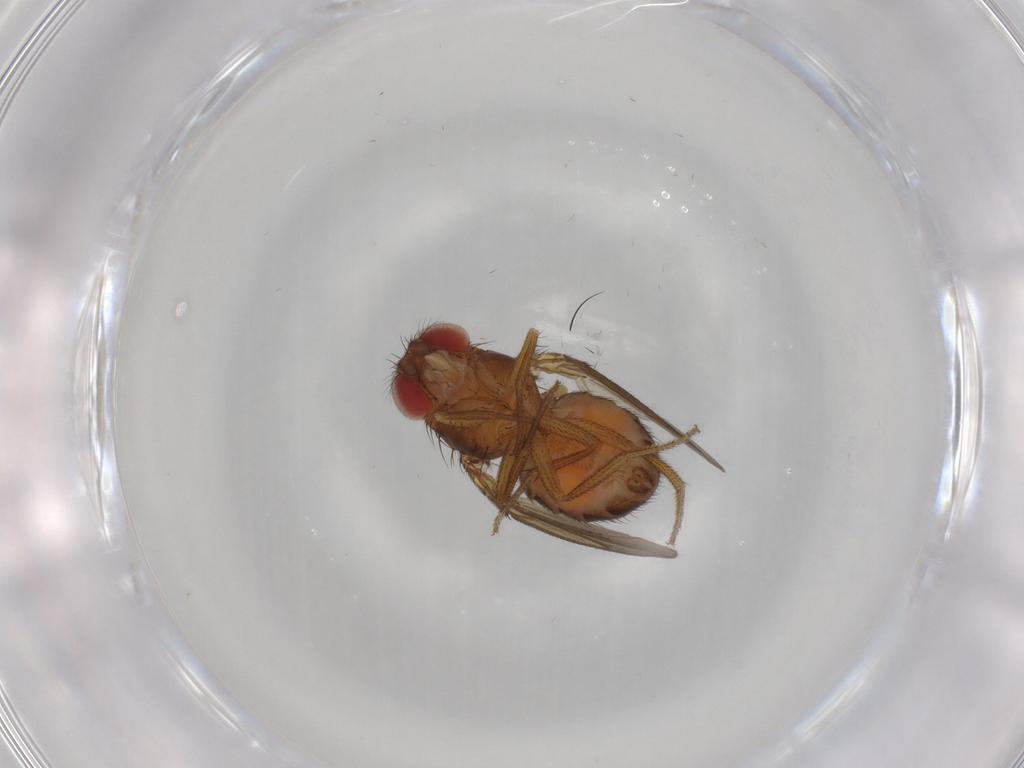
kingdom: Animalia
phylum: Arthropoda
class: Insecta
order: Diptera
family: Drosophilidae
